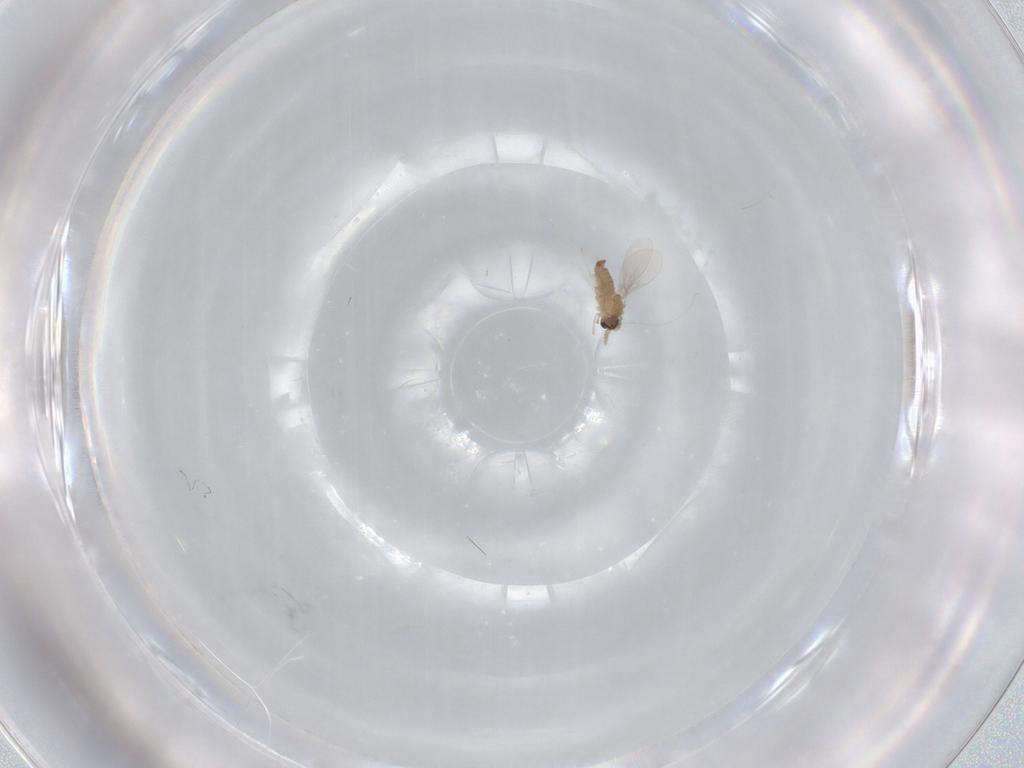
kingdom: Animalia
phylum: Arthropoda
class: Insecta
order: Diptera
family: Cecidomyiidae
